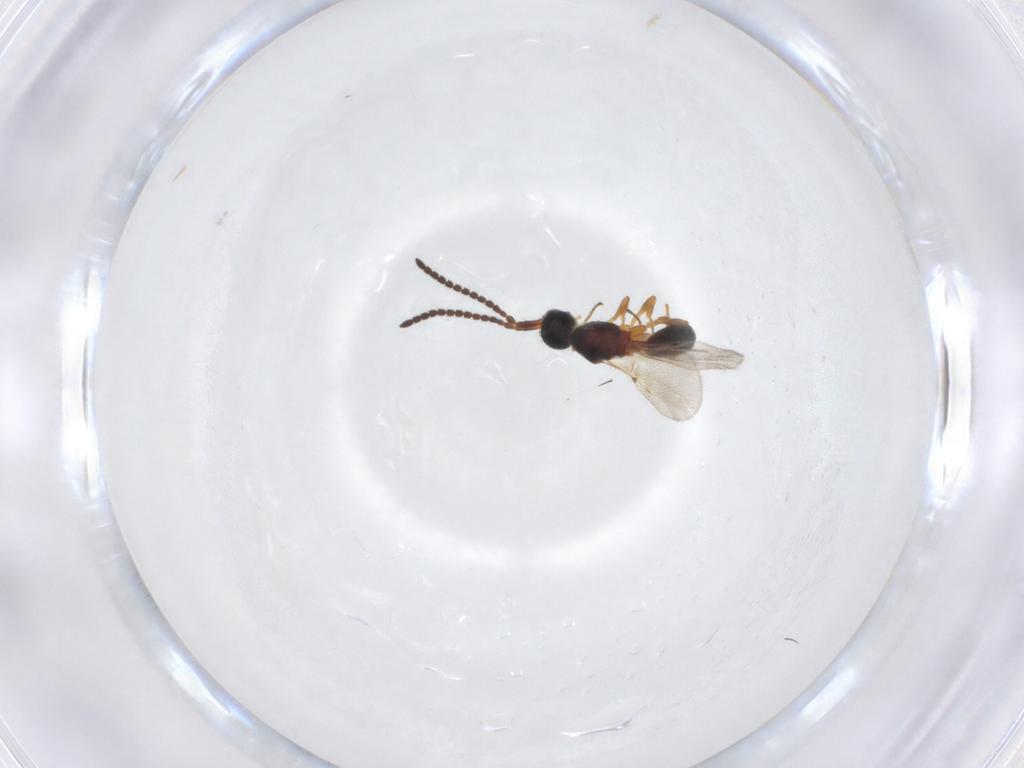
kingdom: Animalia
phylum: Arthropoda
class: Insecta
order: Hymenoptera
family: Diapriidae
